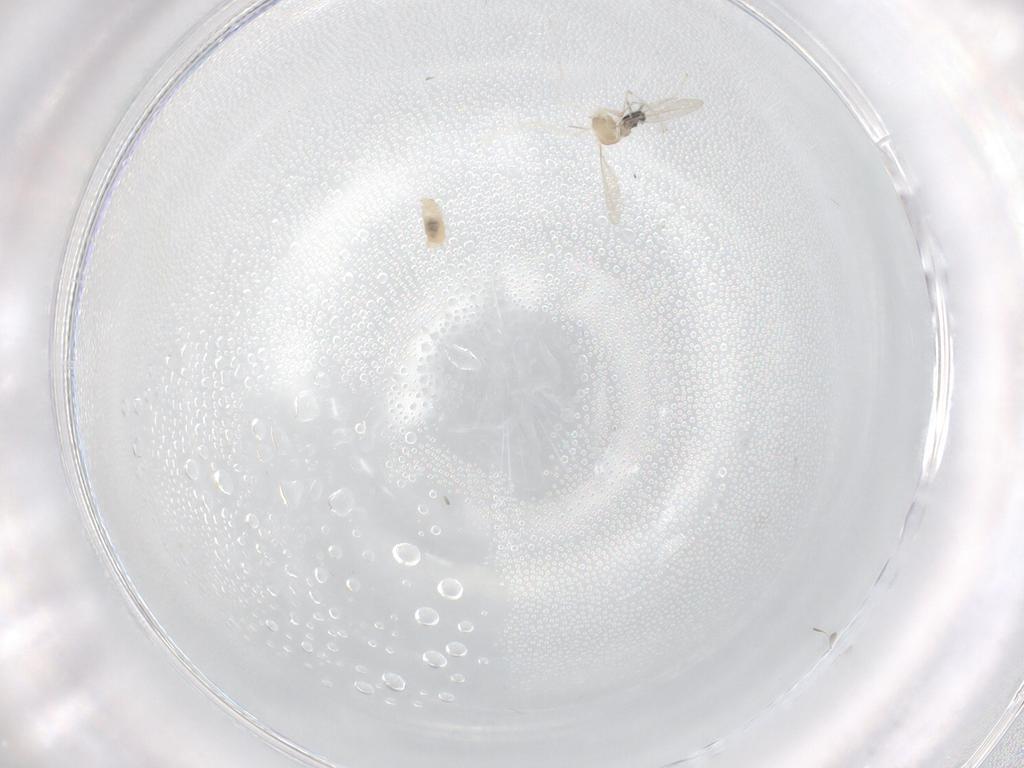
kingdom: Animalia
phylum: Arthropoda
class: Insecta
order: Diptera
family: Cecidomyiidae
